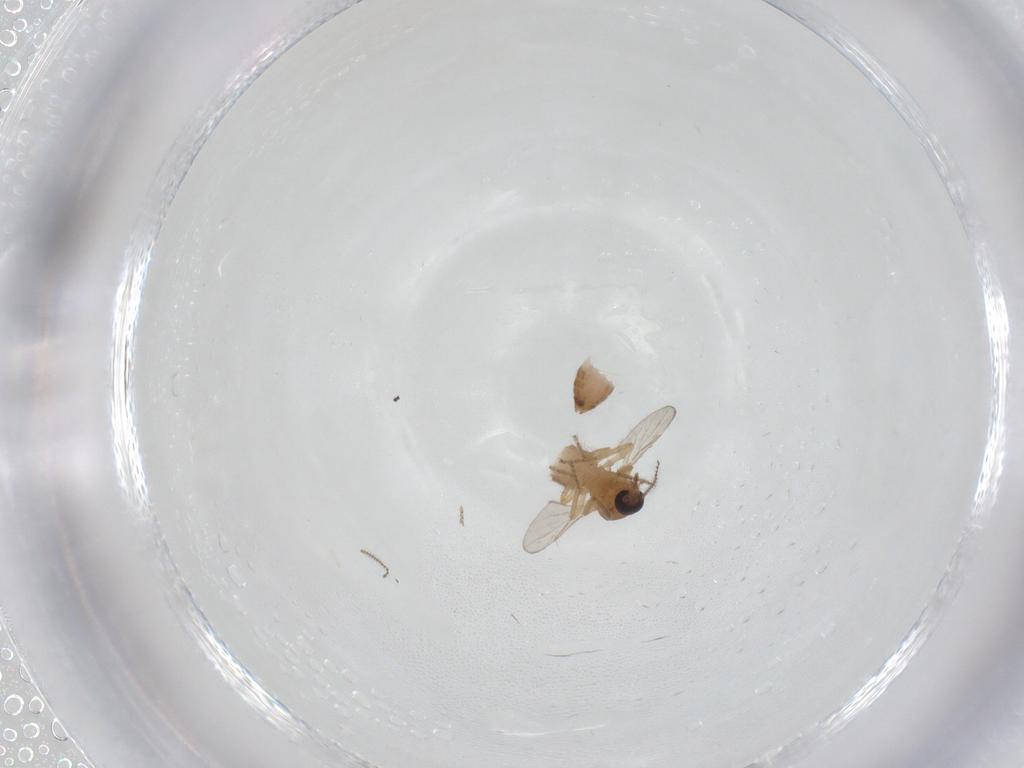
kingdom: Animalia
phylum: Arthropoda
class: Insecta
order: Diptera
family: Ceratopogonidae
